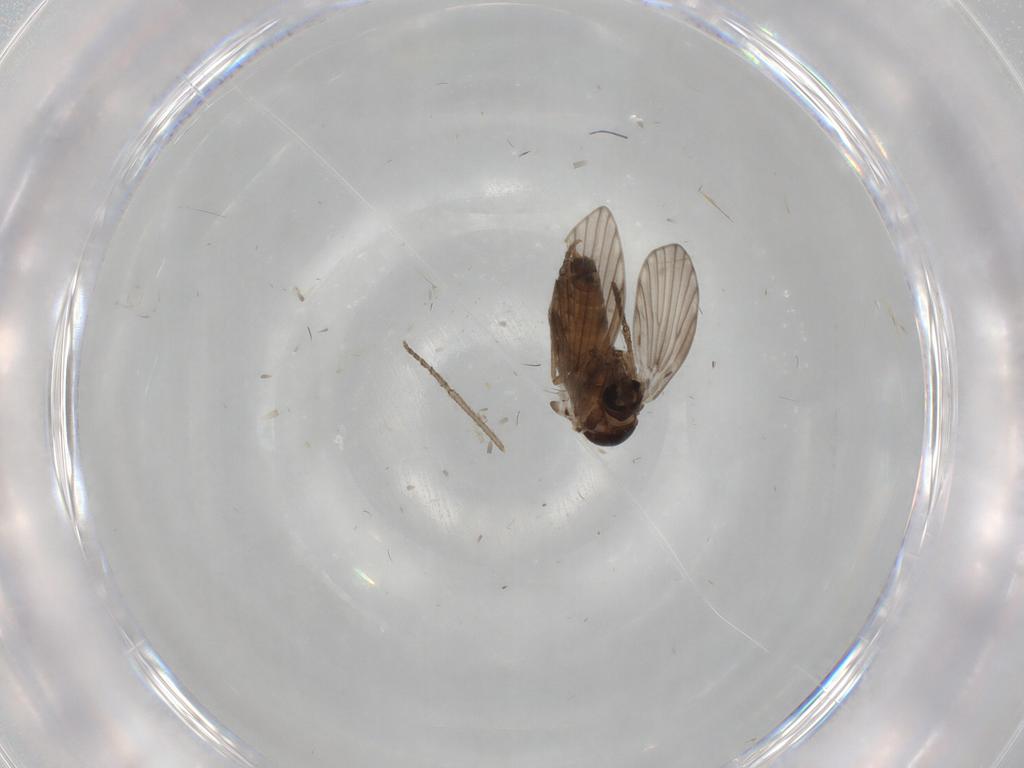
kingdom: Animalia
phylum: Arthropoda
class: Insecta
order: Diptera
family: Psychodidae
